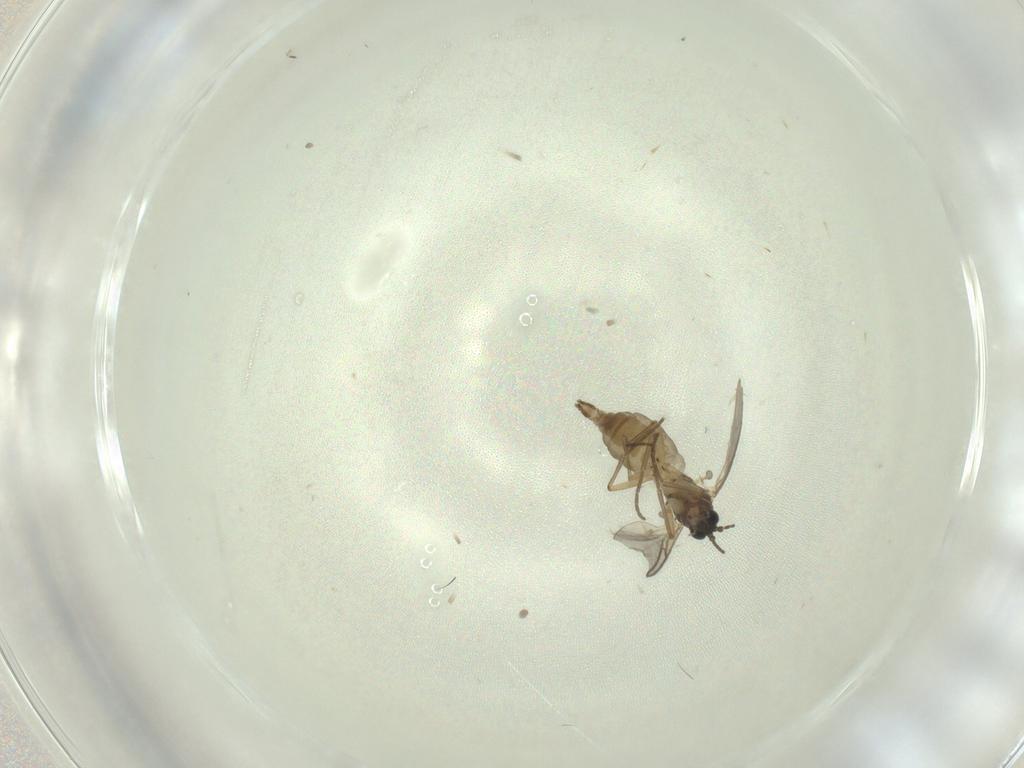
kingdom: Animalia
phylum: Arthropoda
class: Insecta
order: Diptera
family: Sciaridae
